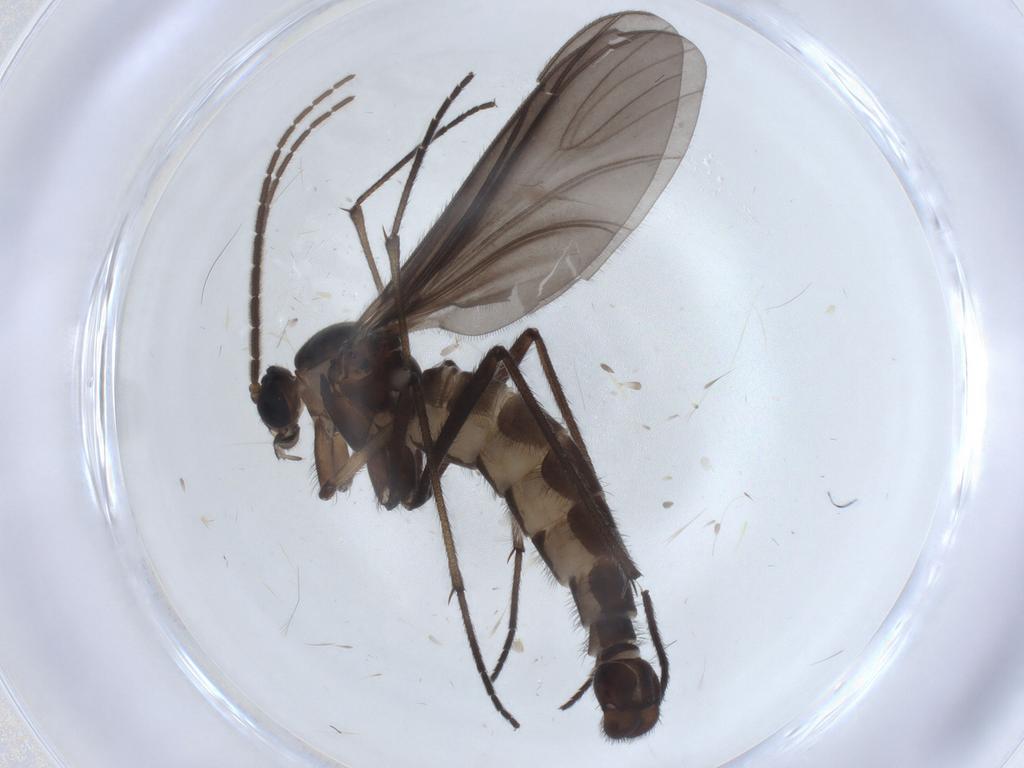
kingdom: Animalia
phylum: Arthropoda
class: Insecta
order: Diptera
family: Sciaridae
